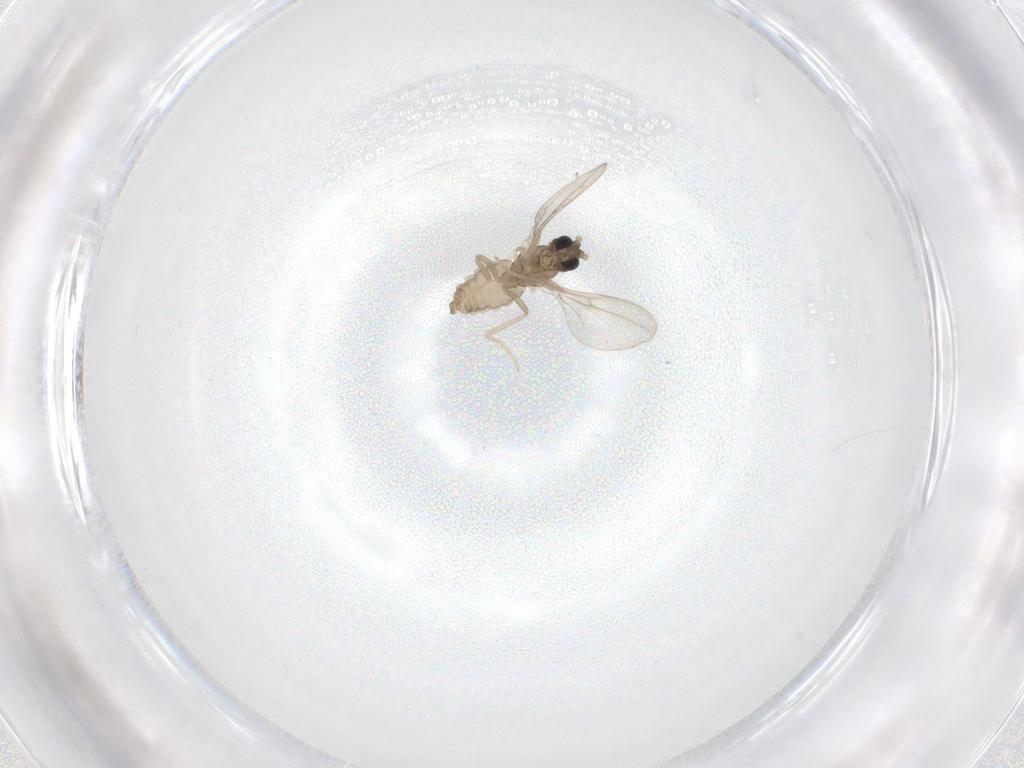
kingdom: Animalia
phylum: Arthropoda
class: Insecta
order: Diptera
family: Cecidomyiidae
